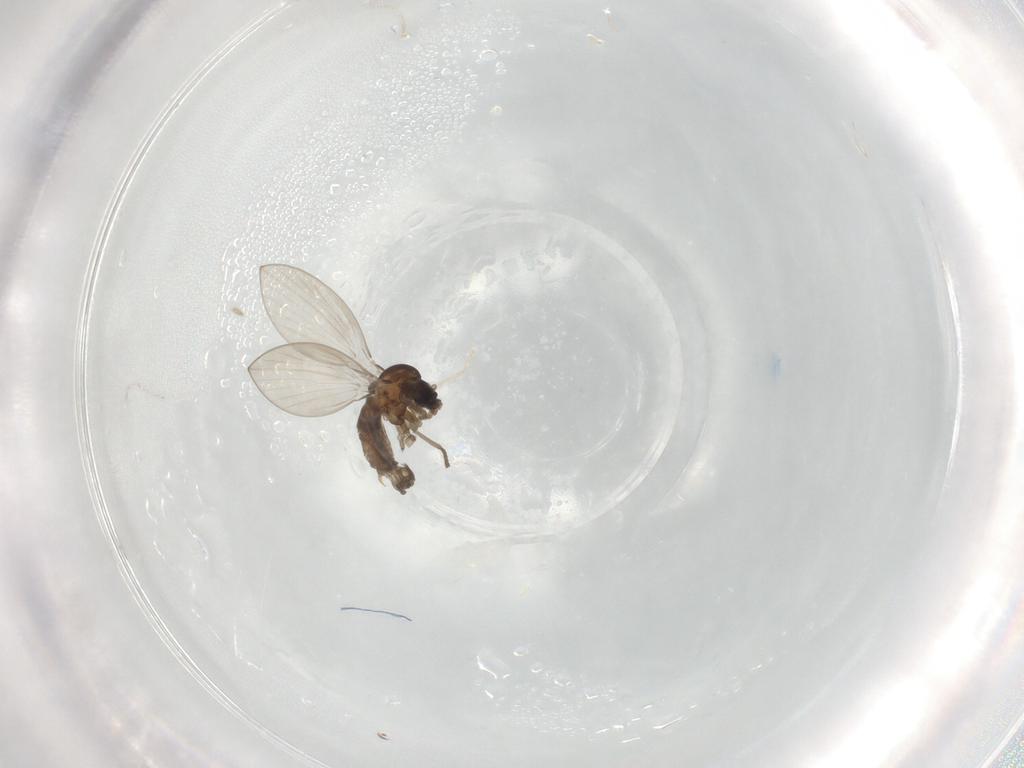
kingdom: Animalia
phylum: Arthropoda
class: Insecta
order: Diptera
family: Psychodidae
